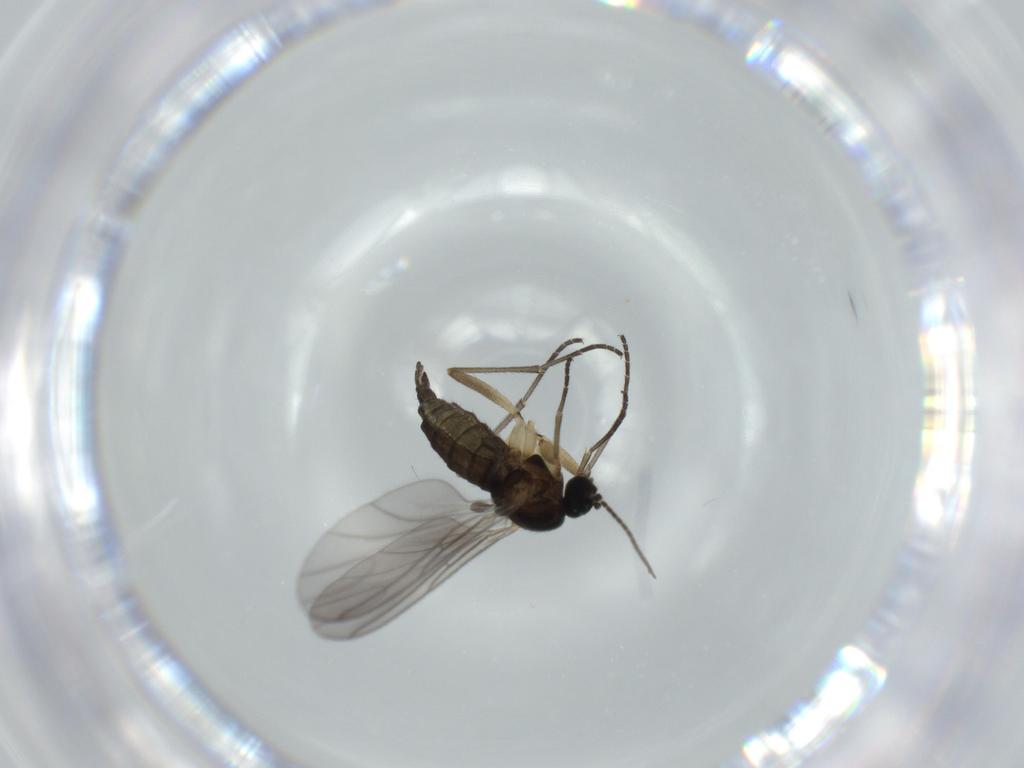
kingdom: Animalia
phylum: Arthropoda
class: Insecta
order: Diptera
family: Sciaridae
